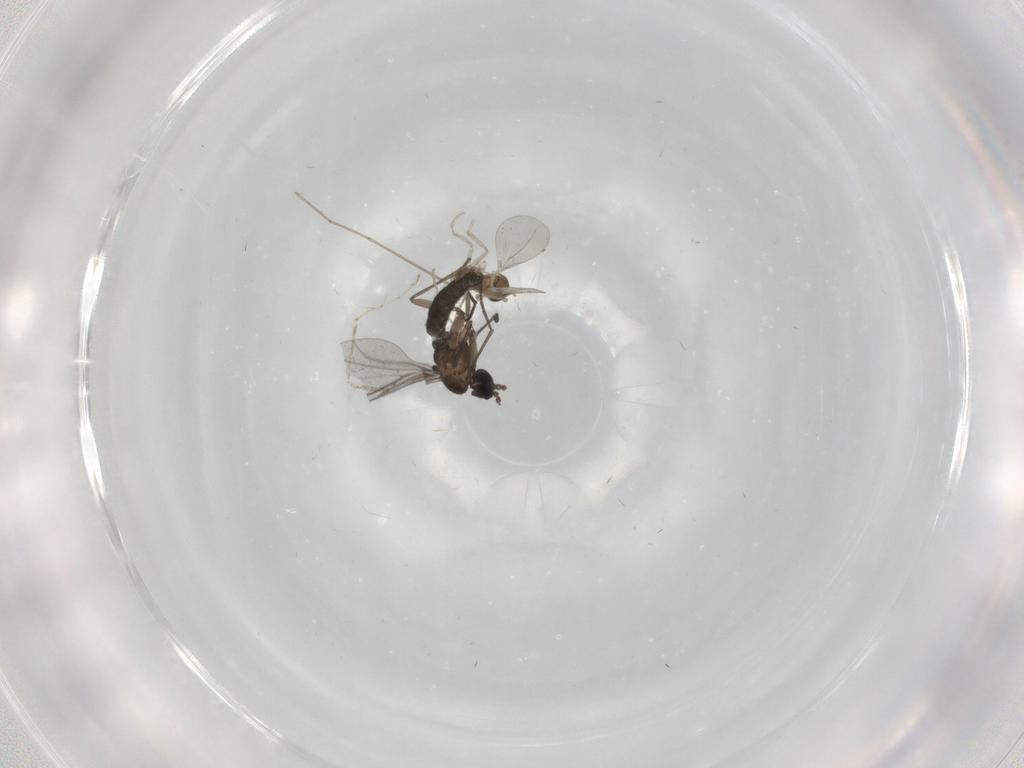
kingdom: Animalia
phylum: Arthropoda
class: Insecta
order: Diptera
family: Sciaridae
